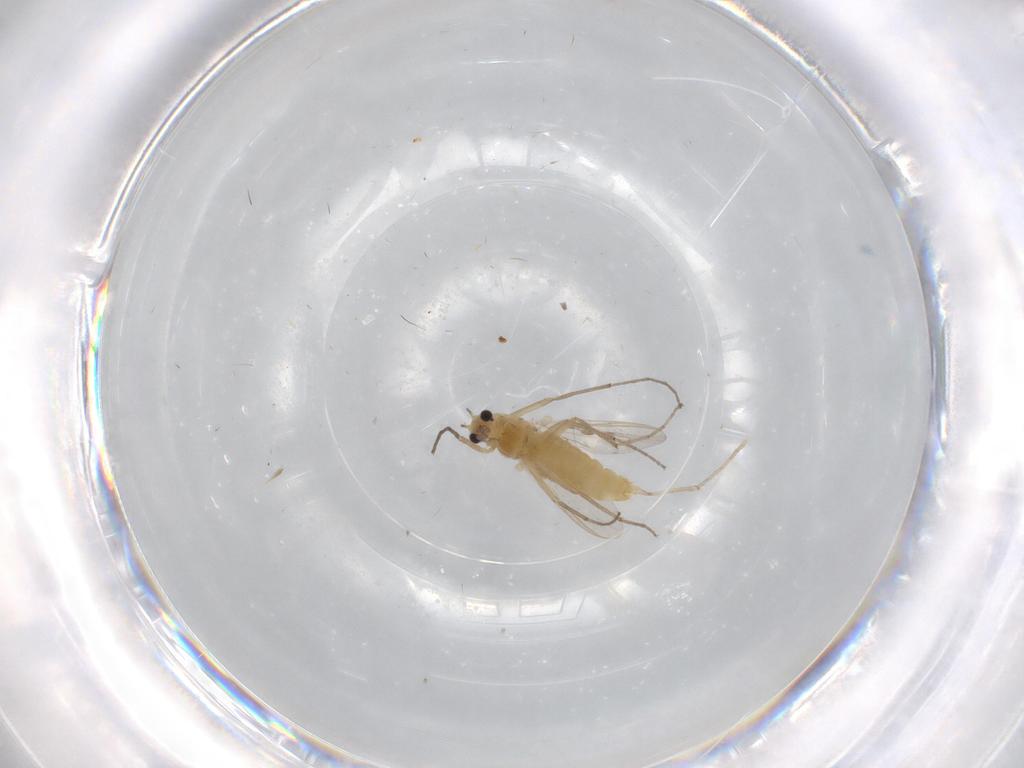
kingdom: Animalia
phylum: Arthropoda
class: Insecta
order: Diptera
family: Chironomidae
